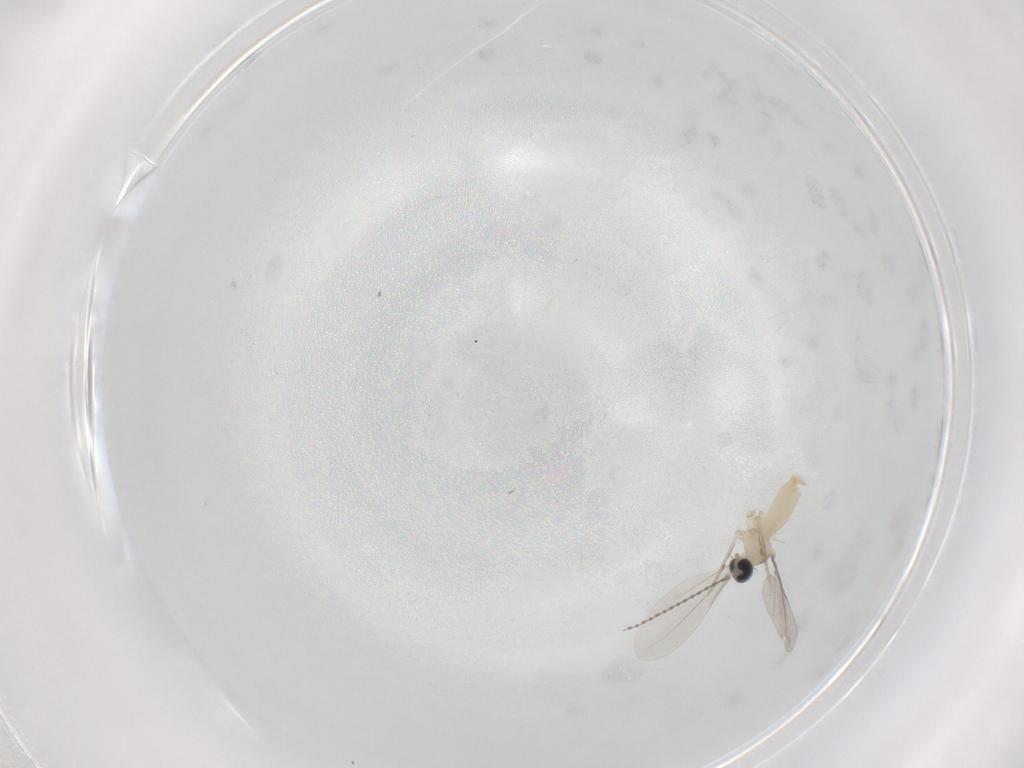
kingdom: Animalia
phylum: Arthropoda
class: Insecta
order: Diptera
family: Cecidomyiidae
